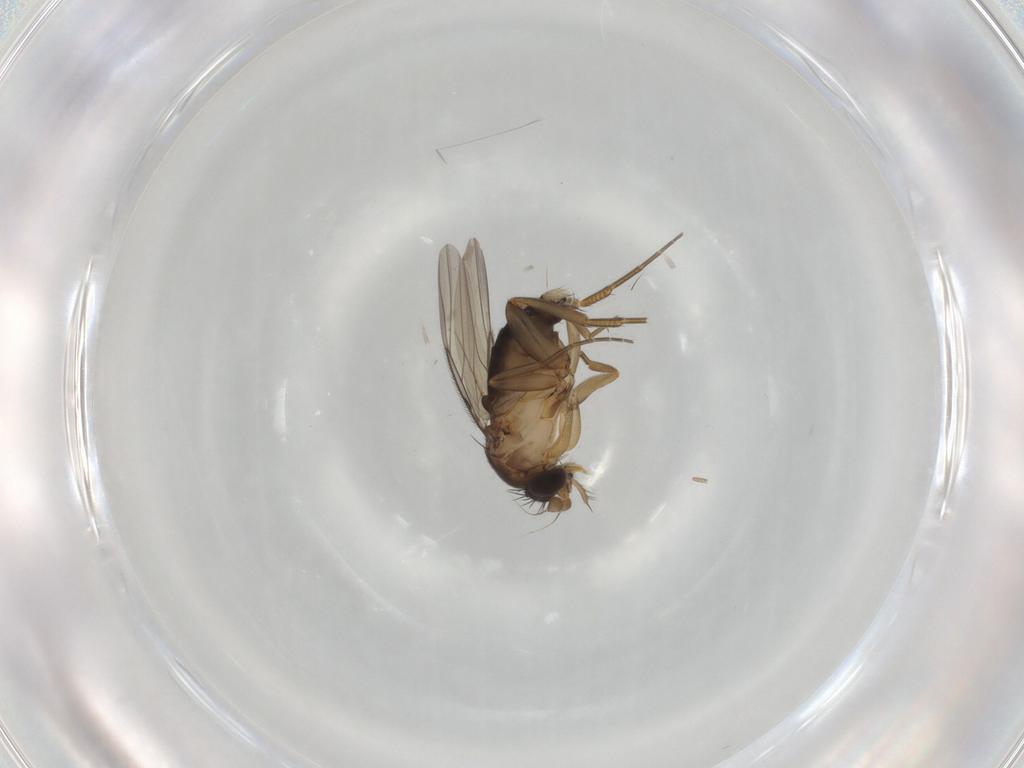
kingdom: Animalia
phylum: Arthropoda
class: Insecta
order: Diptera
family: Phoridae
